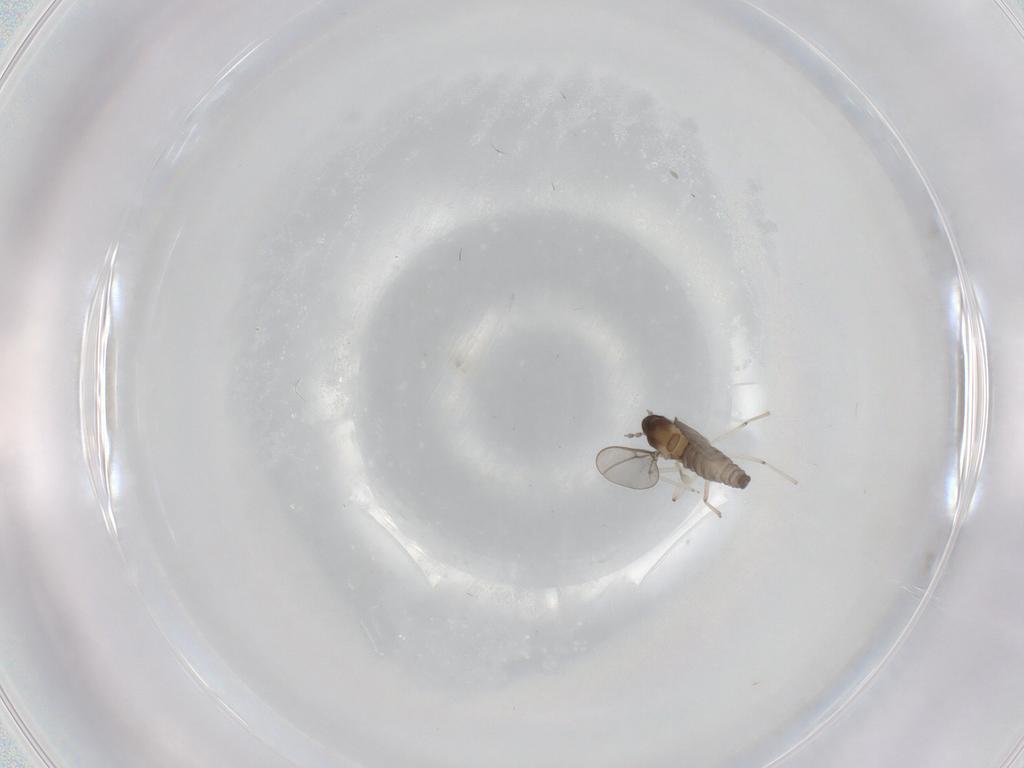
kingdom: Animalia
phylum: Arthropoda
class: Insecta
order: Diptera
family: Cecidomyiidae
